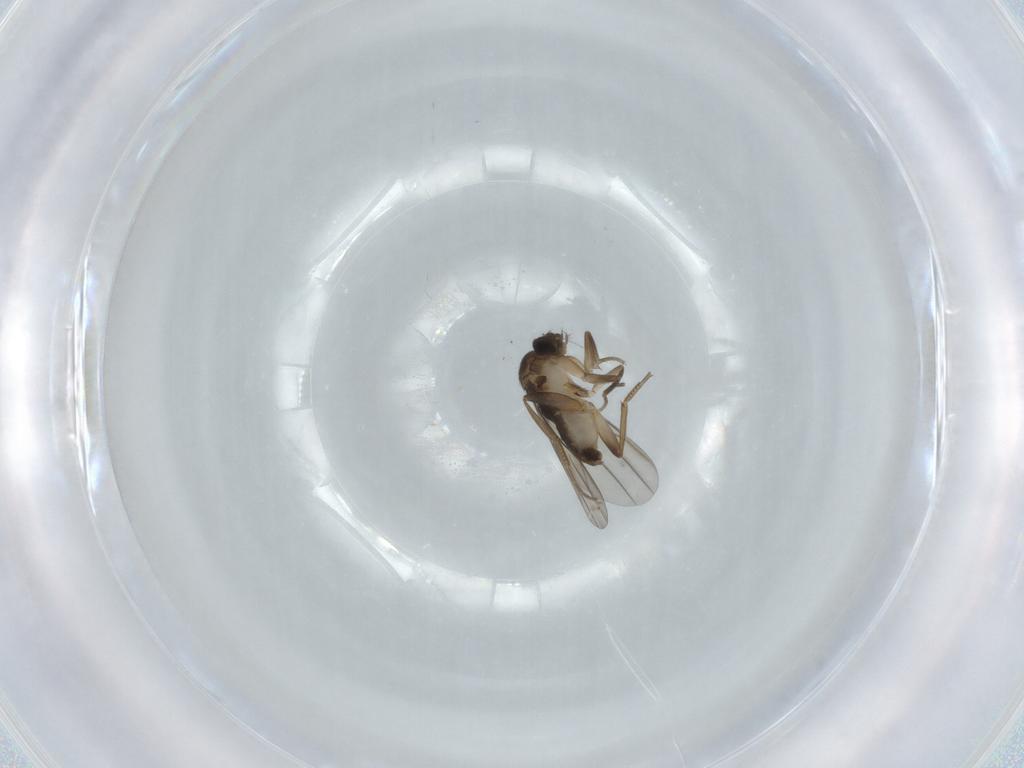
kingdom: Animalia
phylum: Arthropoda
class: Insecta
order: Diptera
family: Phoridae
